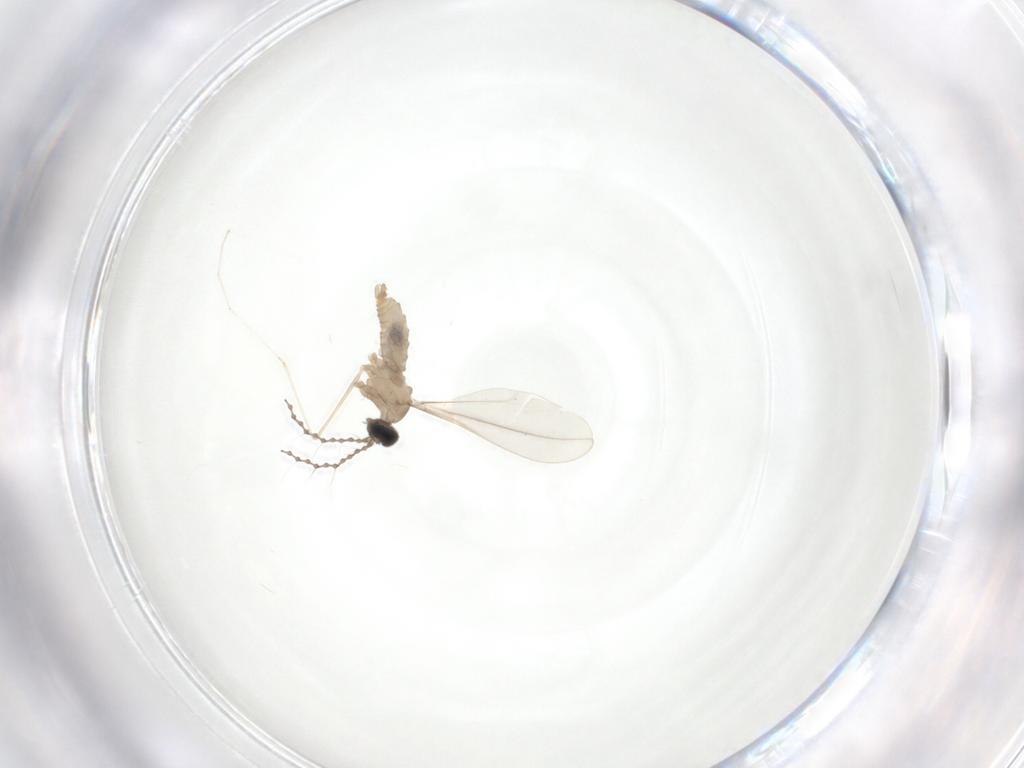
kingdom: Animalia
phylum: Arthropoda
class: Insecta
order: Diptera
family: Cecidomyiidae
